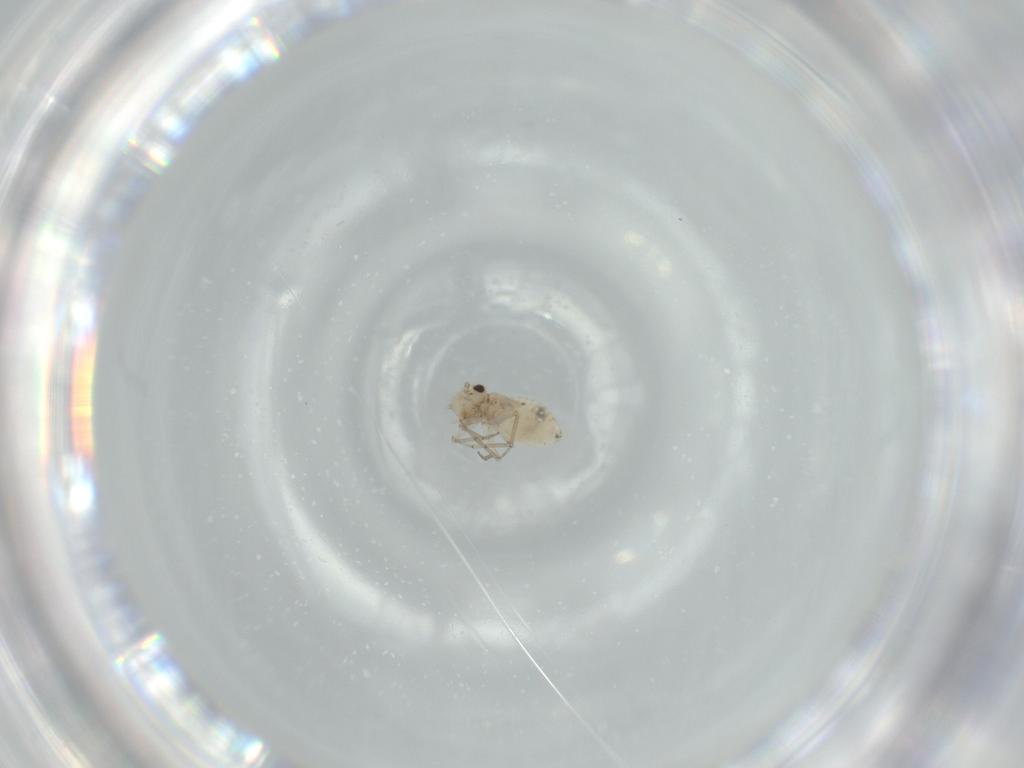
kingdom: Animalia
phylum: Arthropoda
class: Insecta
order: Psocodea
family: Lachesillidae
